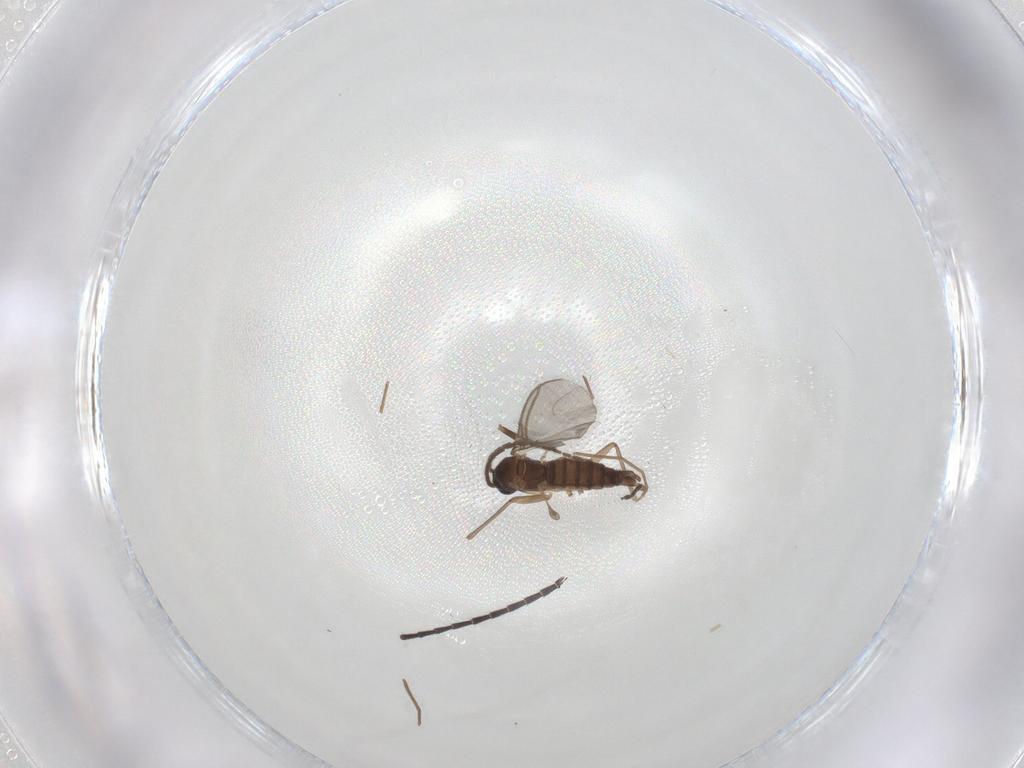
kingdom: Animalia
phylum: Arthropoda
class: Insecta
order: Diptera
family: Sciaridae
